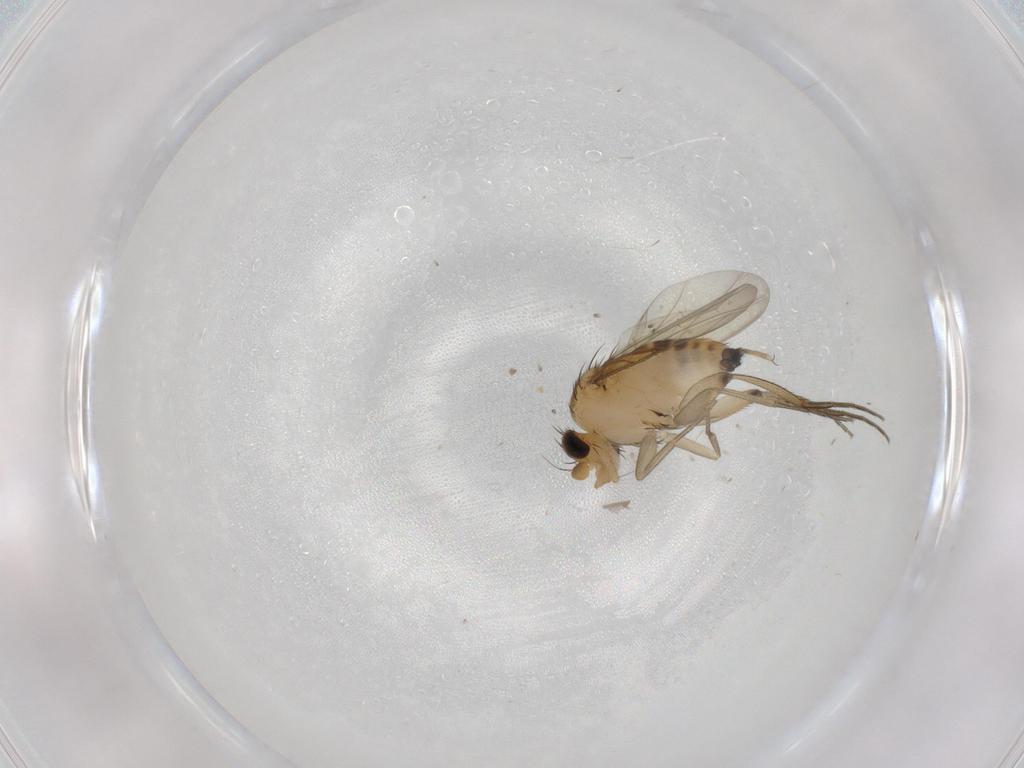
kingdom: Animalia
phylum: Arthropoda
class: Insecta
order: Diptera
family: Phoridae
